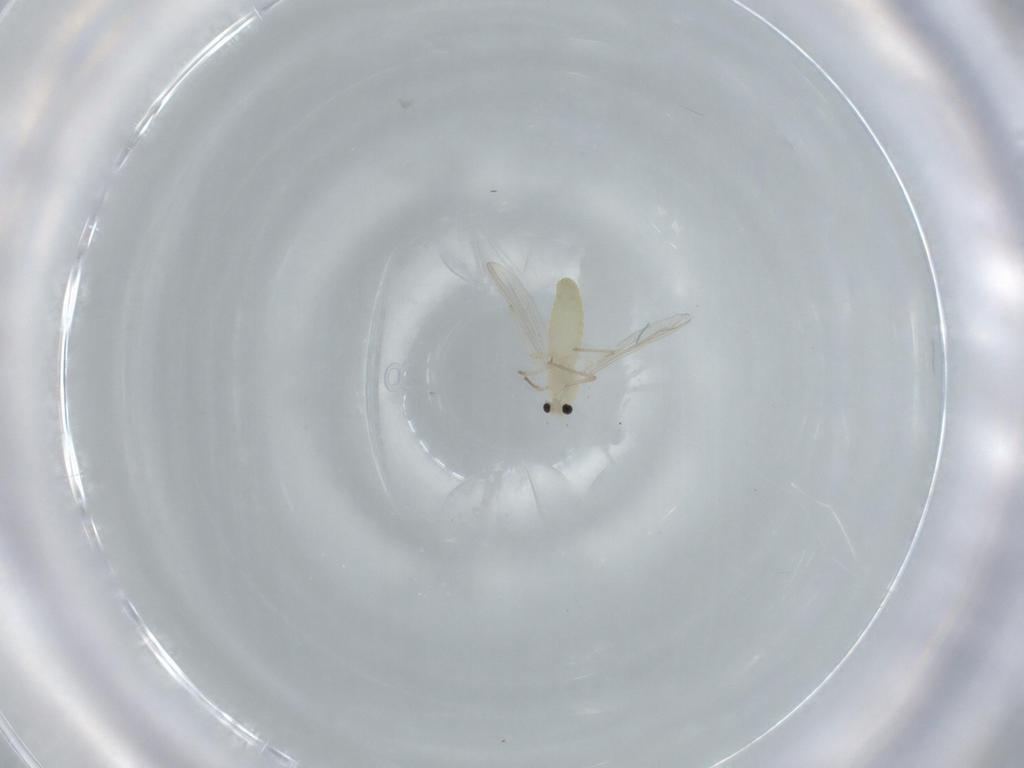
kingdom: Animalia
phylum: Arthropoda
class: Insecta
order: Diptera
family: Chironomidae
